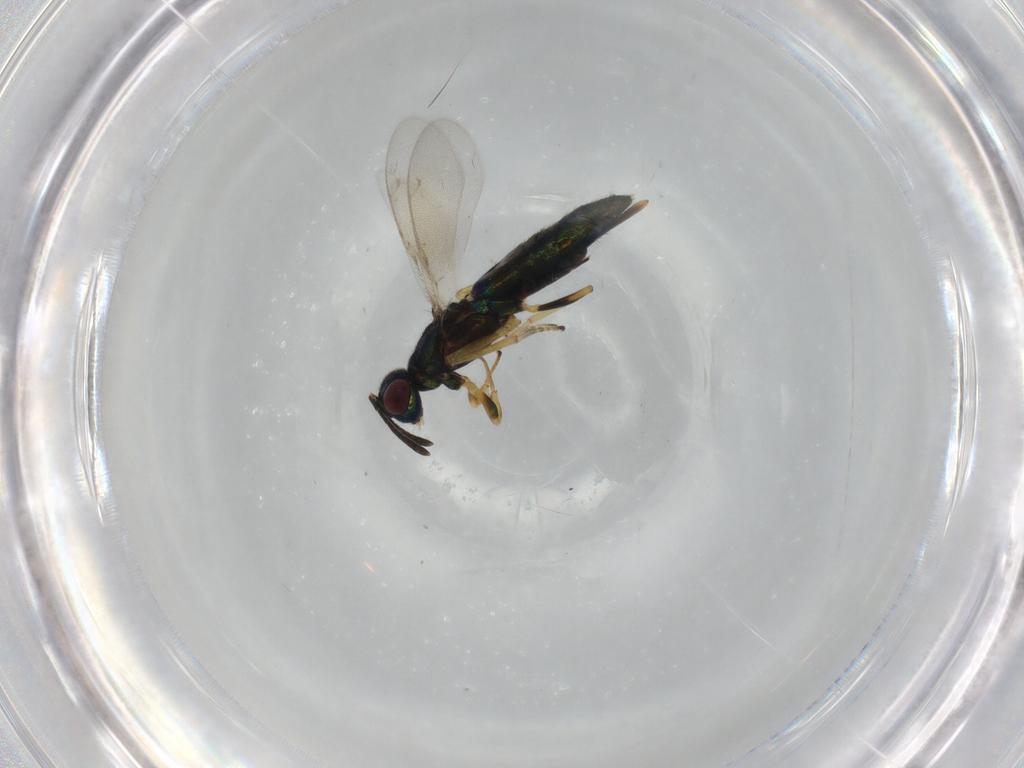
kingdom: Animalia
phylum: Arthropoda
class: Insecta
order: Hymenoptera
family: Eupelmidae
